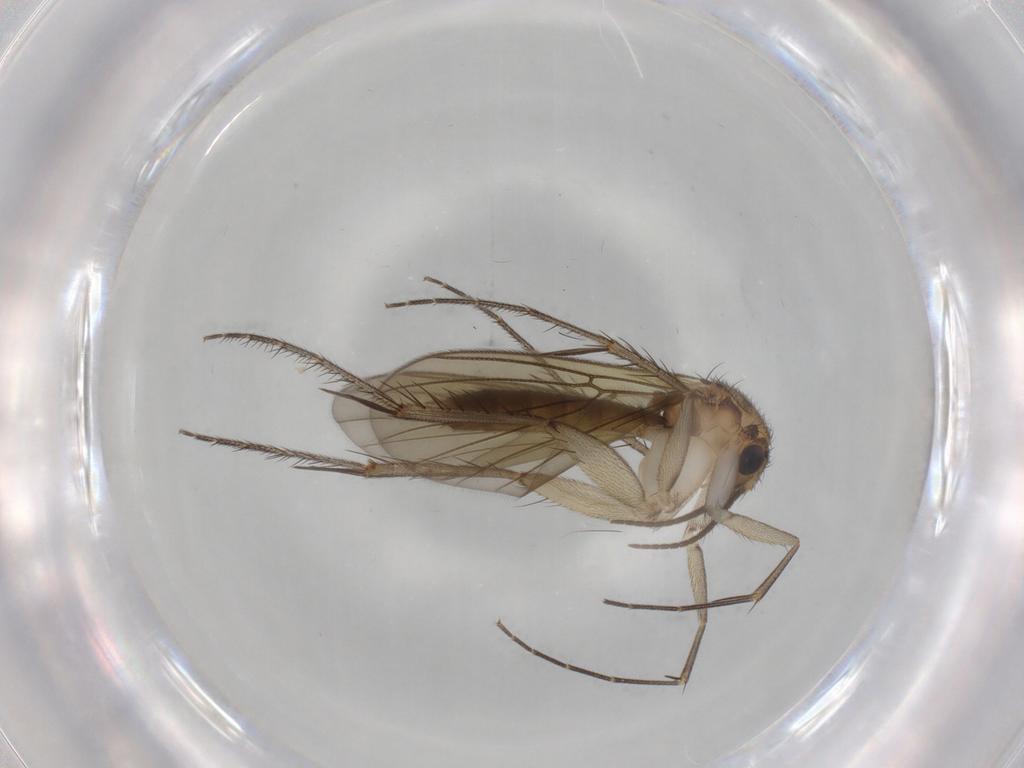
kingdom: Animalia
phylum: Arthropoda
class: Insecta
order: Diptera
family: Mycetophilidae
